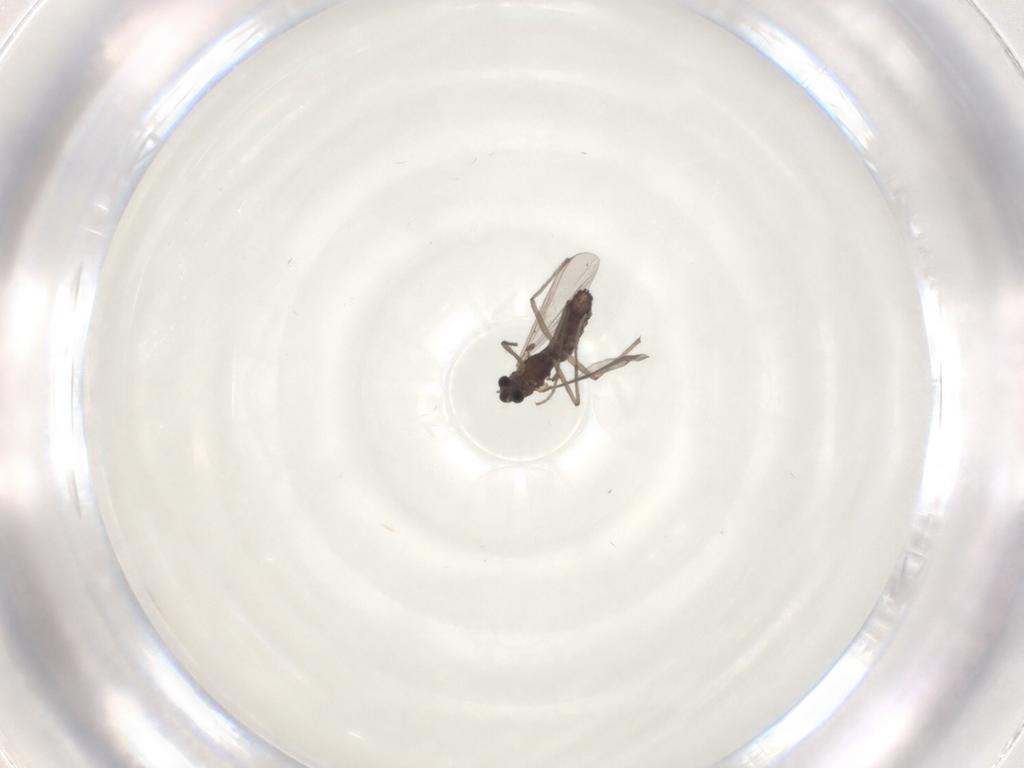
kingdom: Animalia
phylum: Arthropoda
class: Insecta
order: Diptera
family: Chironomidae
